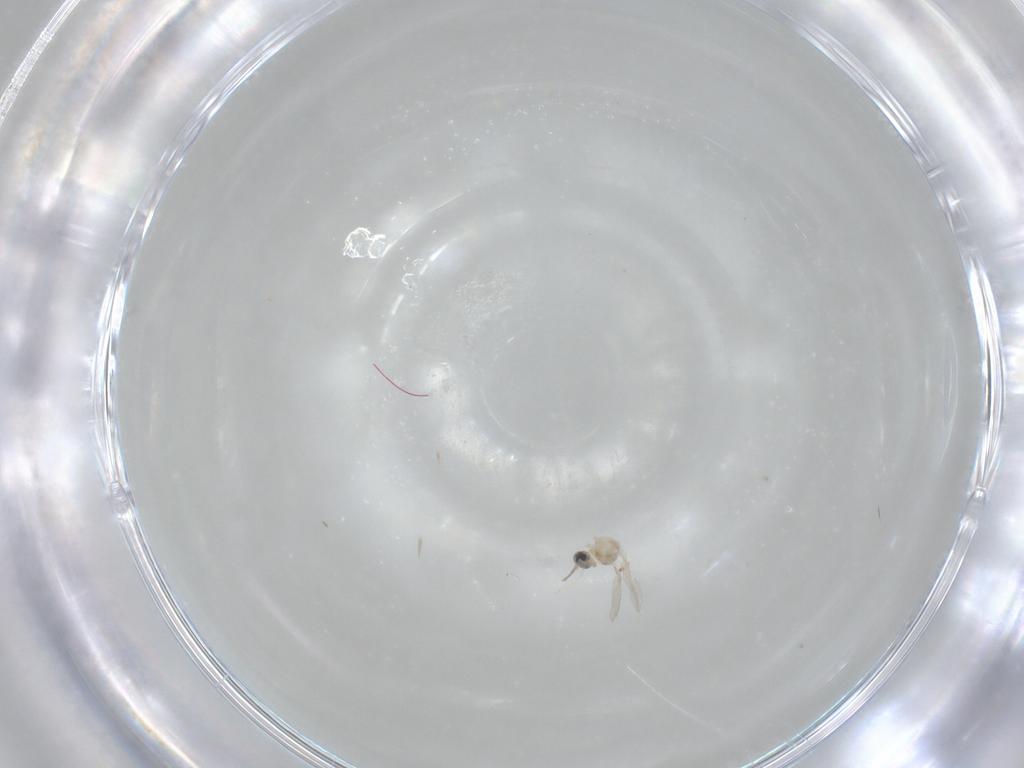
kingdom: Animalia
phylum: Arthropoda
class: Insecta
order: Diptera
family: Cecidomyiidae
